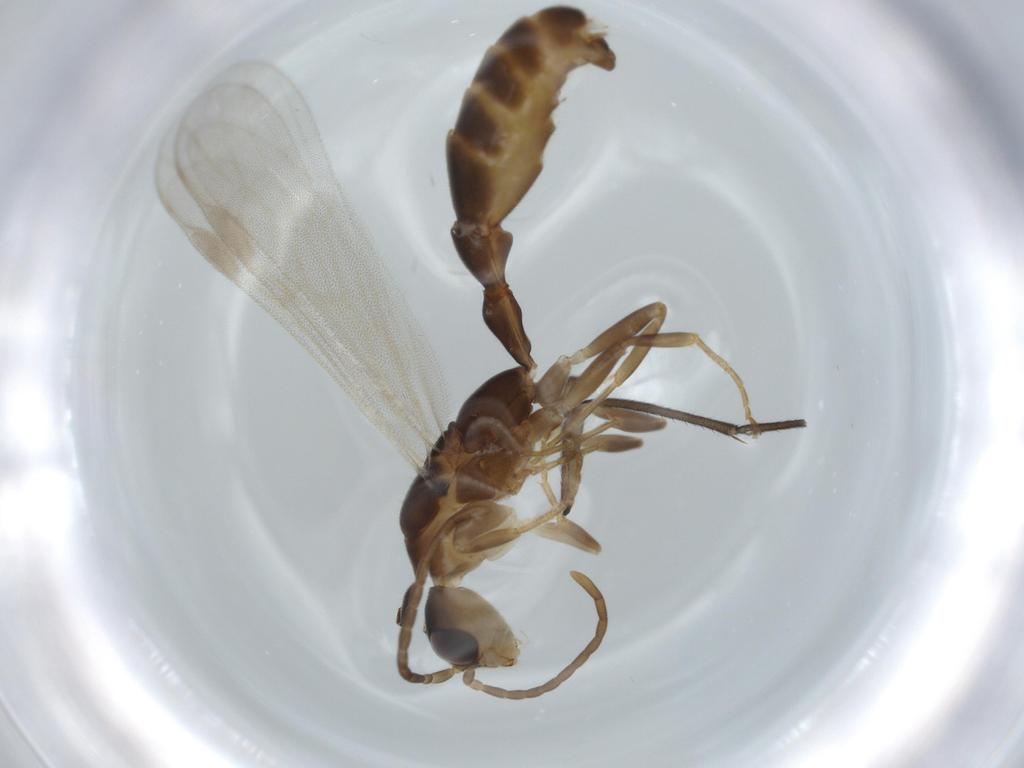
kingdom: Animalia
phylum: Arthropoda
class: Insecta
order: Hymenoptera
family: Formicidae
